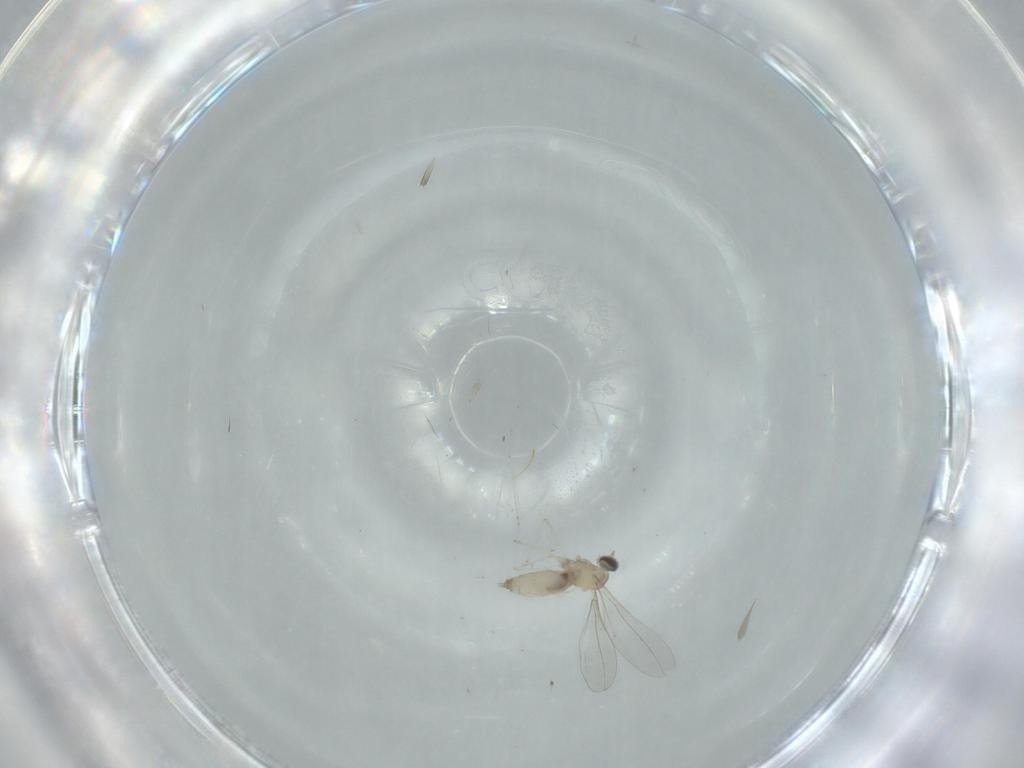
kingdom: Animalia
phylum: Arthropoda
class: Insecta
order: Diptera
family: Cecidomyiidae
